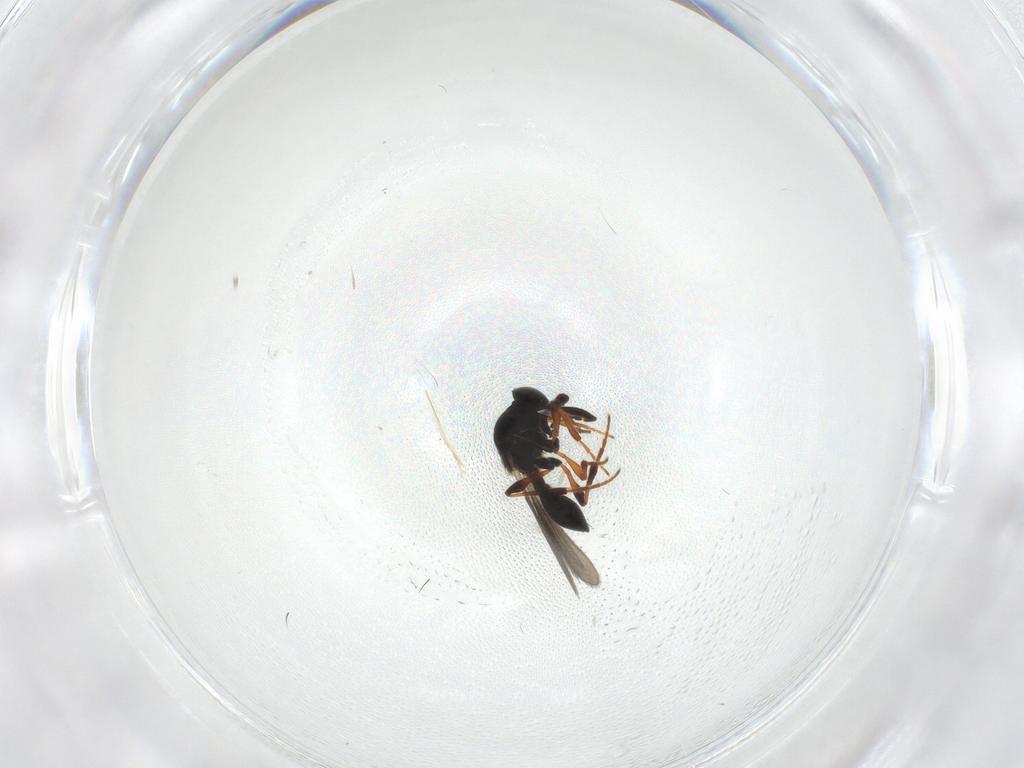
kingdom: Animalia
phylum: Arthropoda
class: Insecta
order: Hymenoptera
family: Platygastridae
